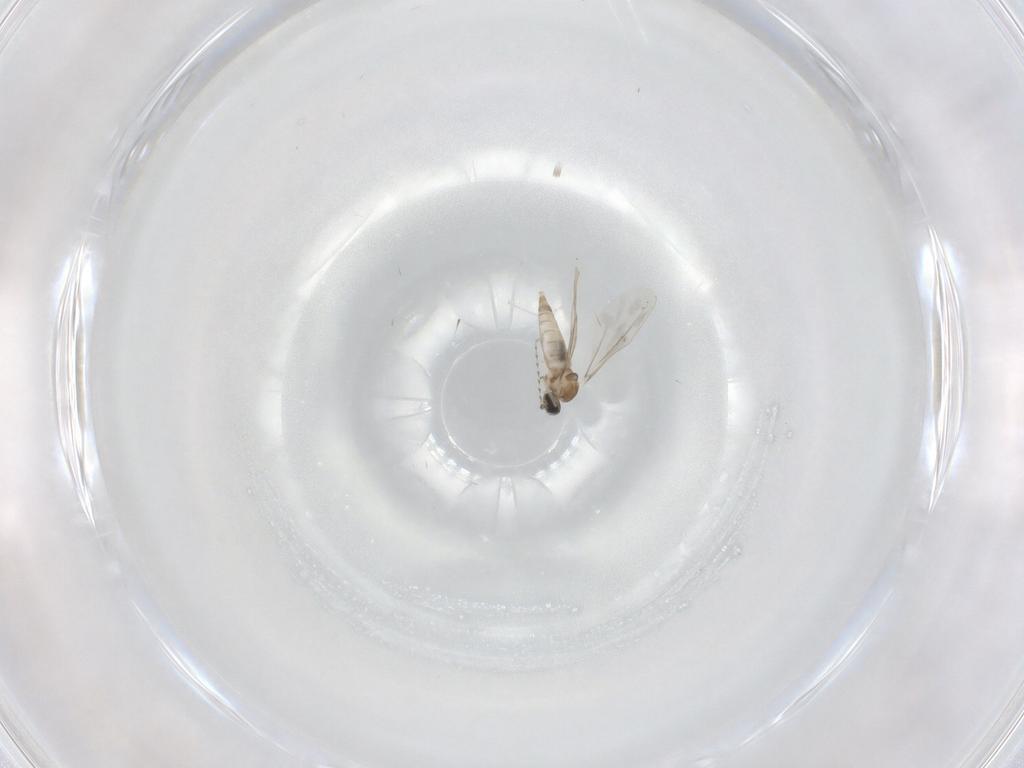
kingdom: Animalia
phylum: Arthropoda
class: Insecta
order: Diptera
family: Cecidomyiidae
